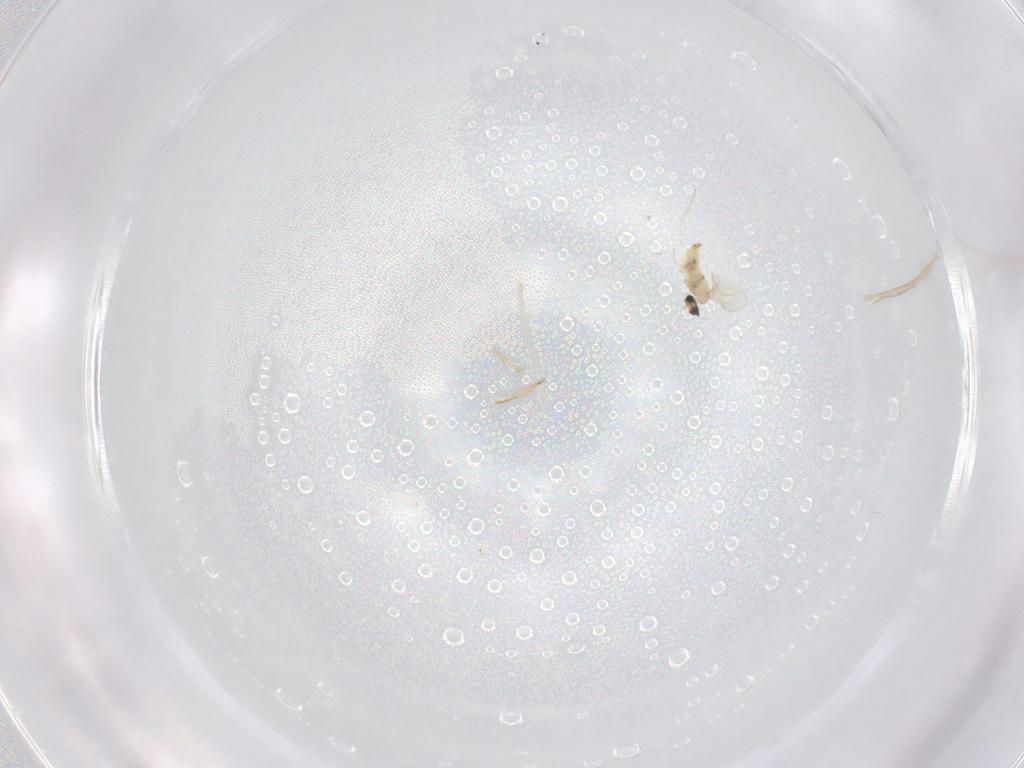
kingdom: Animalia
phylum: Arthropoda
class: Insecta
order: Diptera
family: Cecidomyiidae
